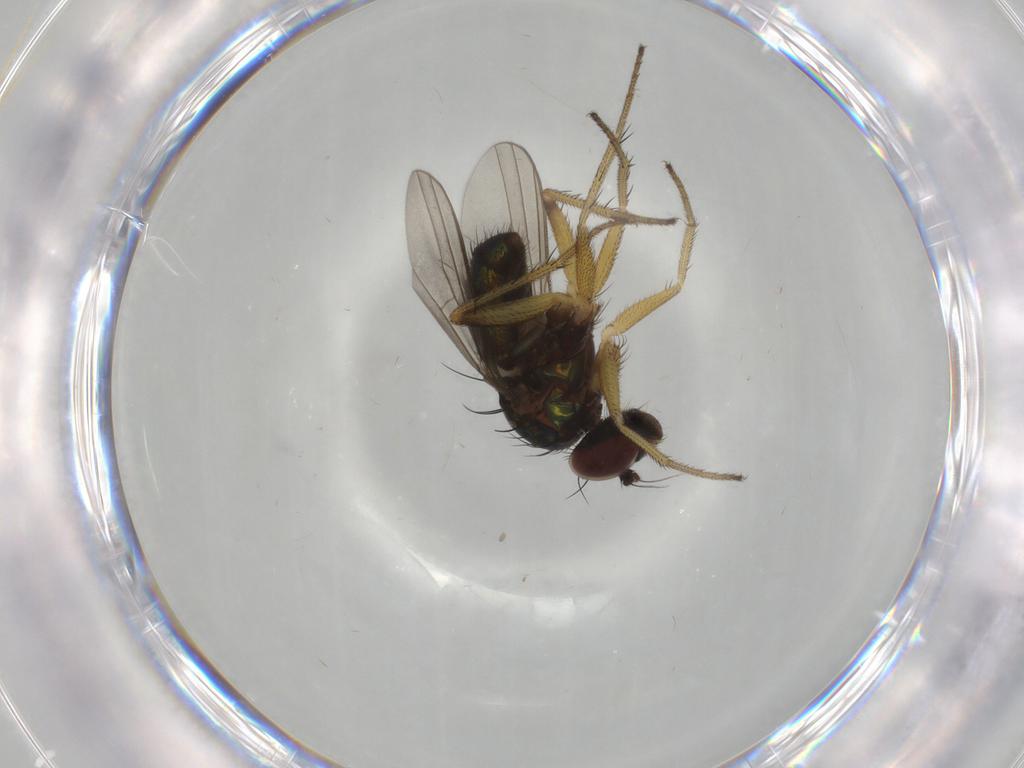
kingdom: Animalia
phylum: Arthropoda
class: Insecta
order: Diptera
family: Dolichopodidae
